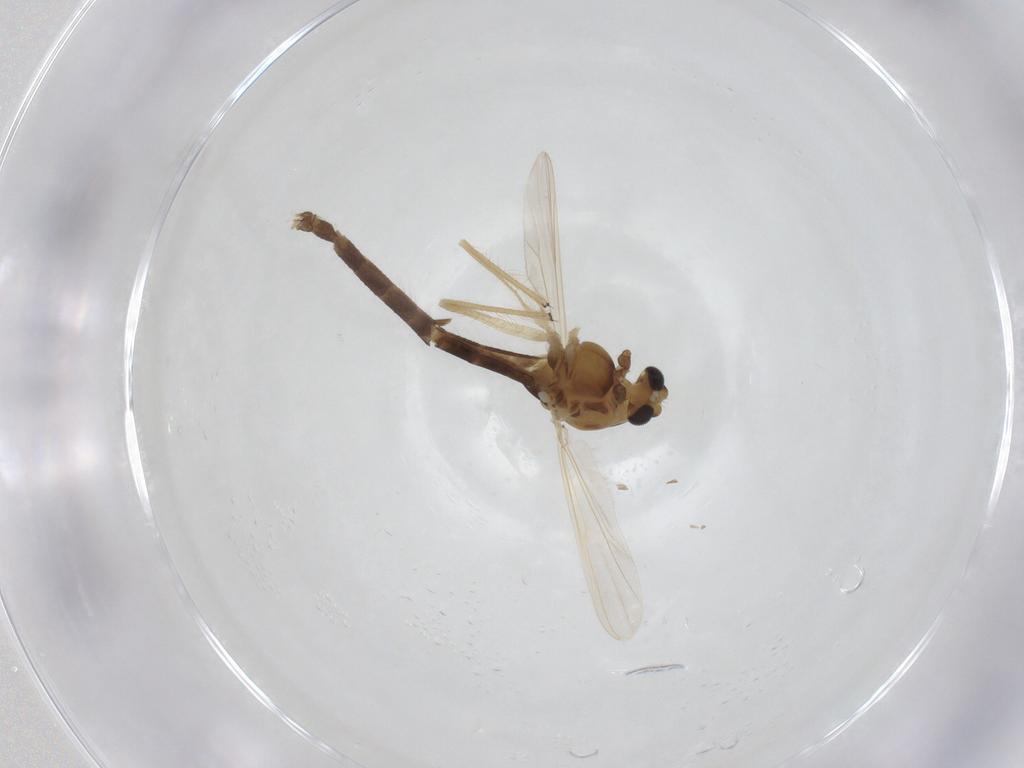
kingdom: Animalia
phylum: Arthropoda
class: Insecta
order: Diptera
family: Chironomidae
